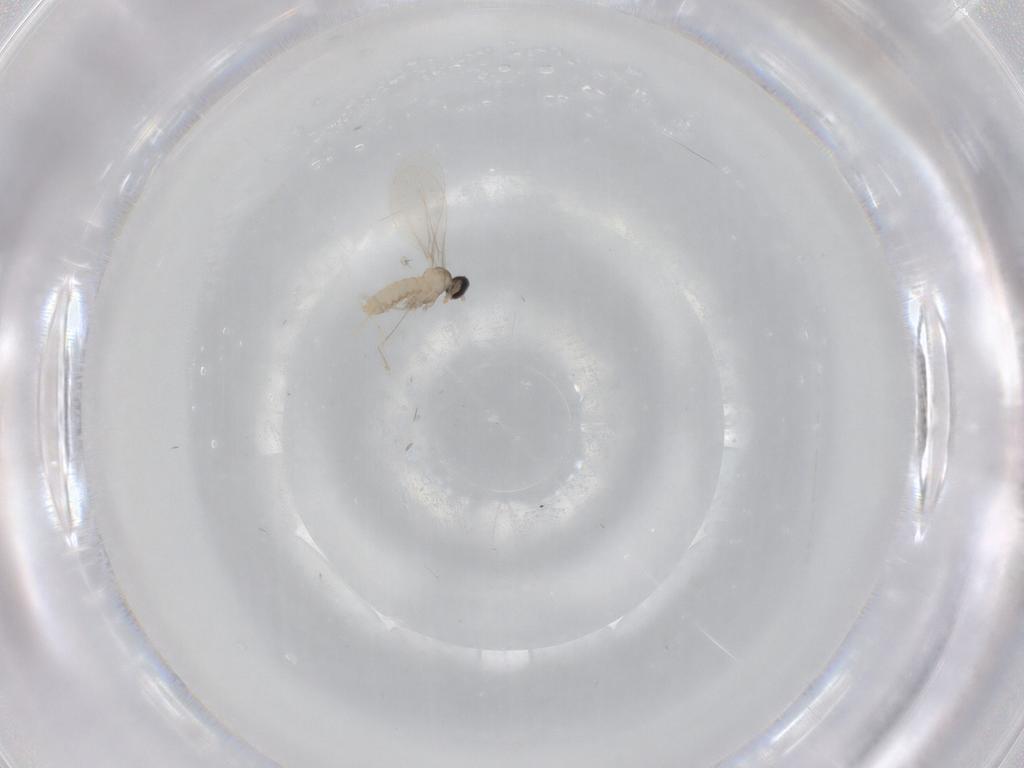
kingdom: Animalia
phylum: Arthropoda
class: Insecta
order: Diptera
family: Cecidomyiidae
